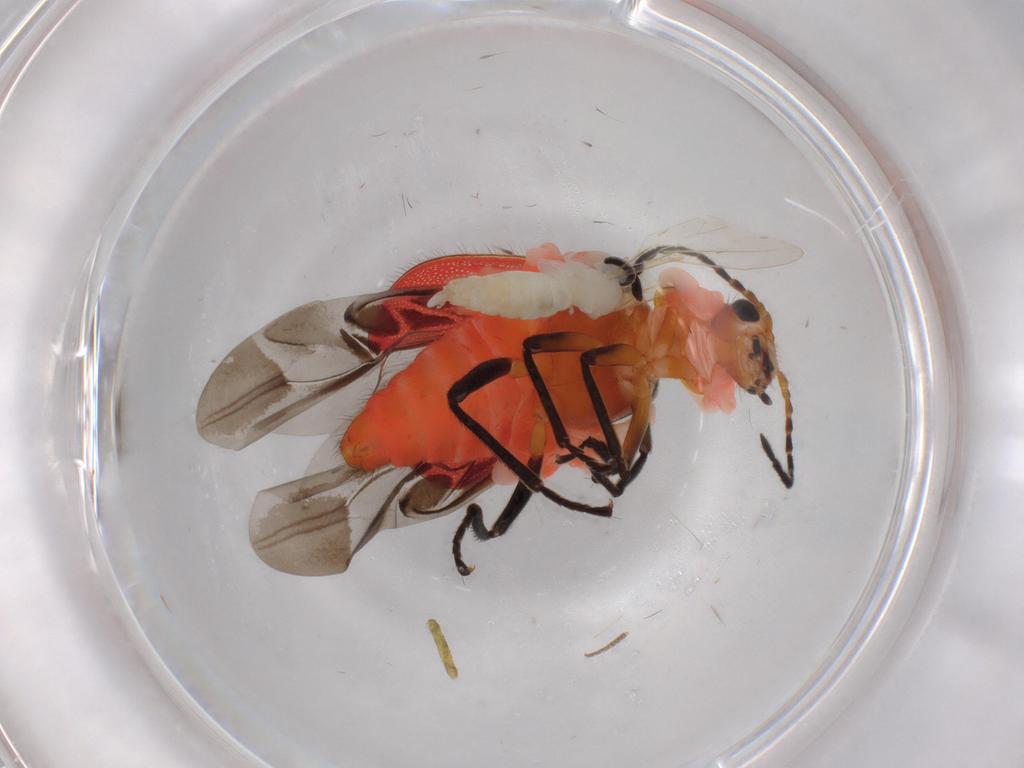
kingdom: Animalia
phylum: Arthropoda
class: Insecta
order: Coleoptera
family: Melyridae
